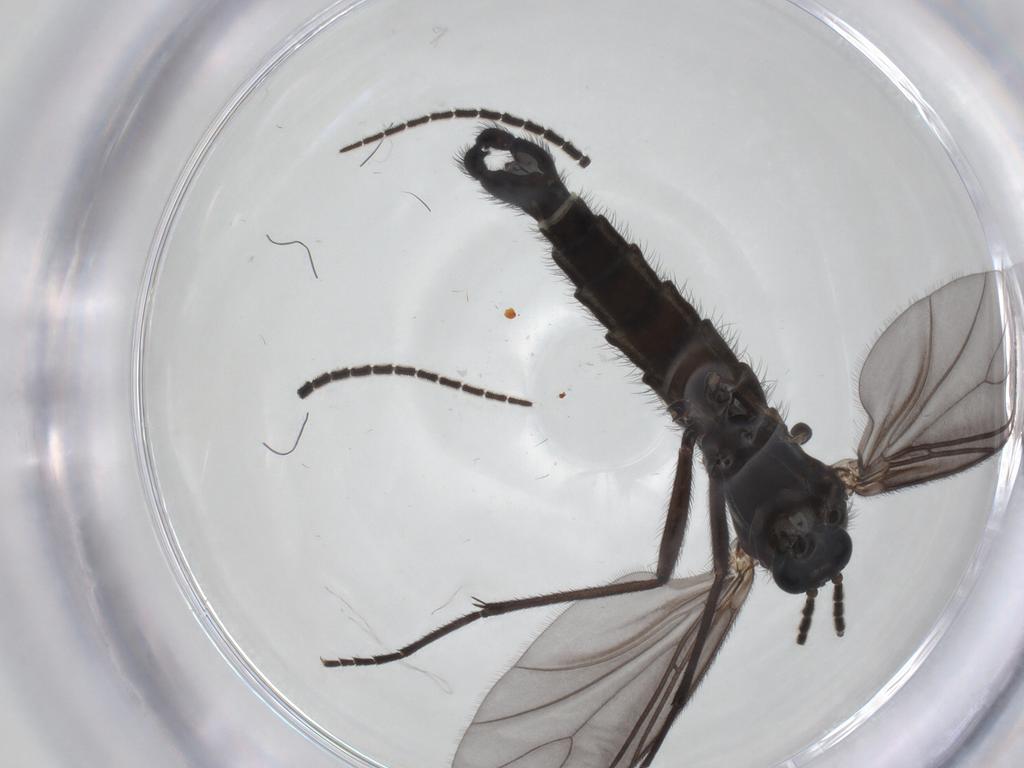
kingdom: Animalia
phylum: Arthropoda
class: Insecta
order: Diptera
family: Cecidomyiidae
